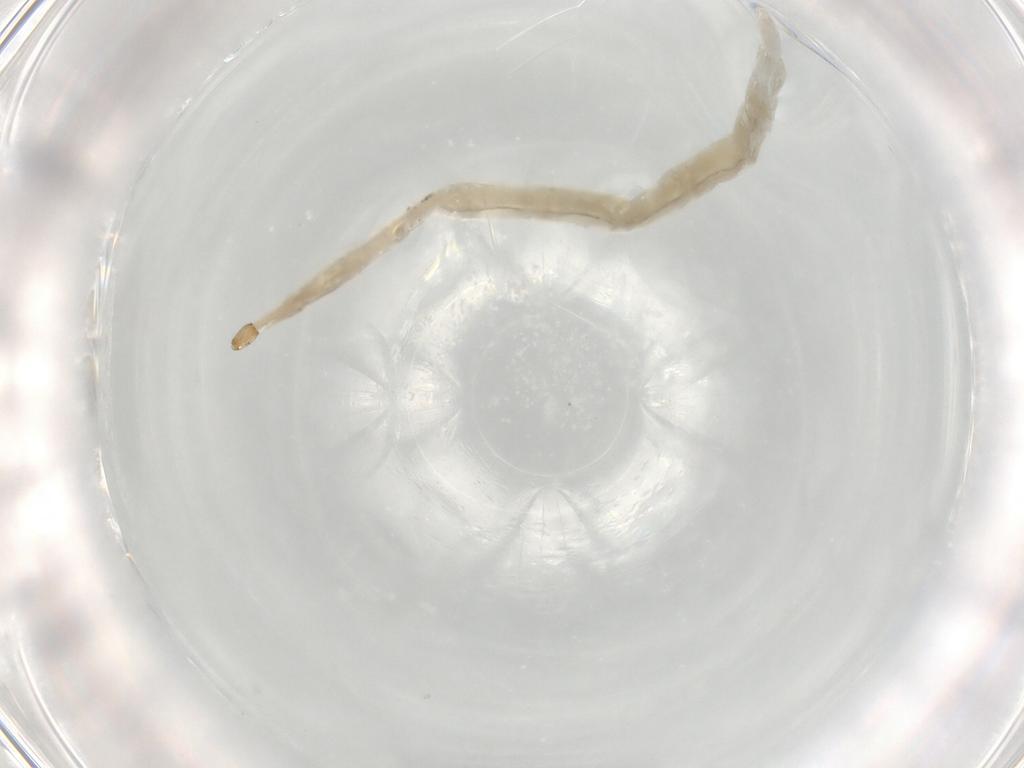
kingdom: Animalia
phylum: Arthropoda
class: Insecta
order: Diptera
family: Ceratopogonidae
